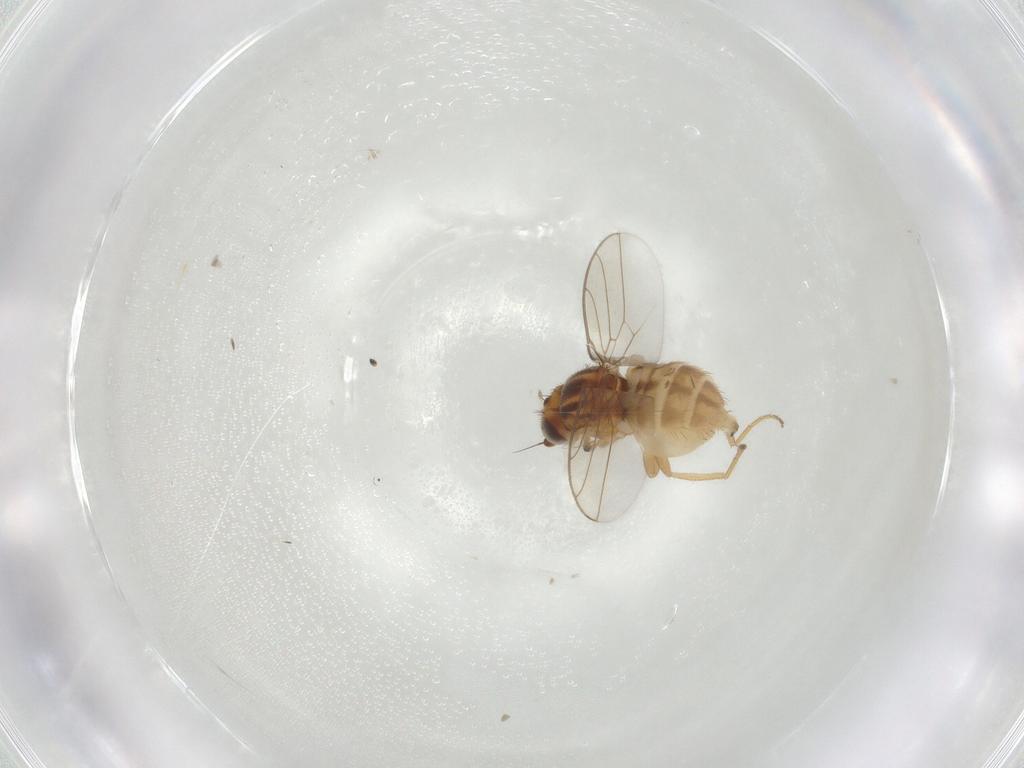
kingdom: Animalia
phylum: Arthropoda
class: Insecta
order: Diptera
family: Chloropidae
